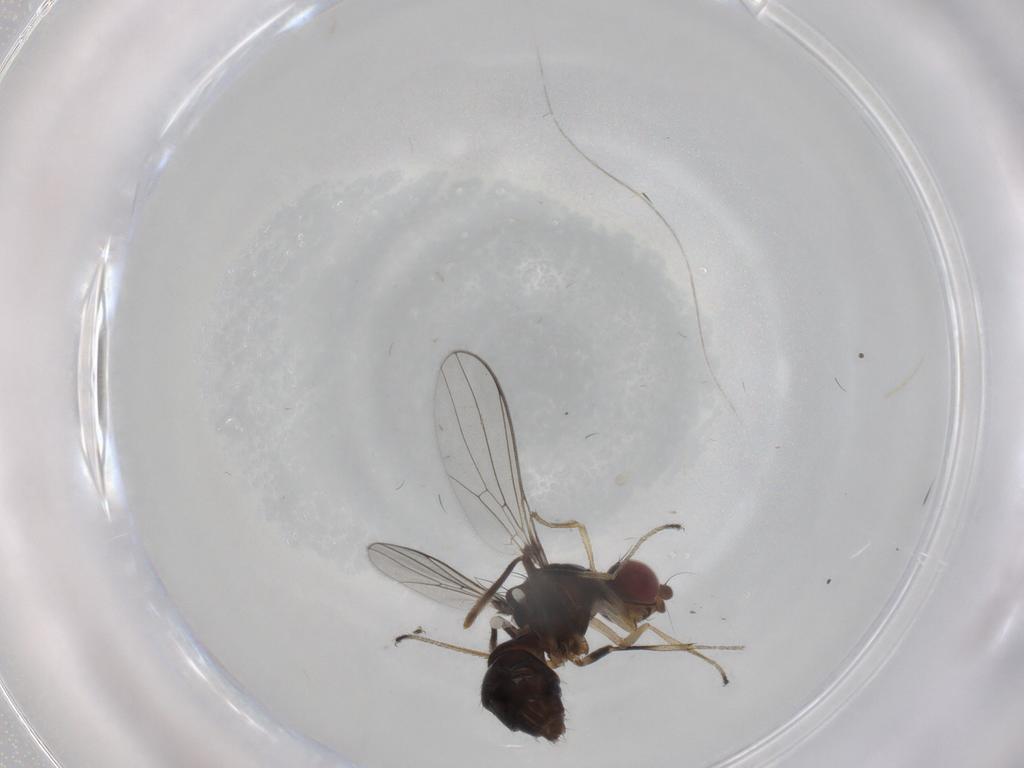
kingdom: Animalia
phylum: Arthropoda
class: Insecta
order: Diptera
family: Sepsidae
